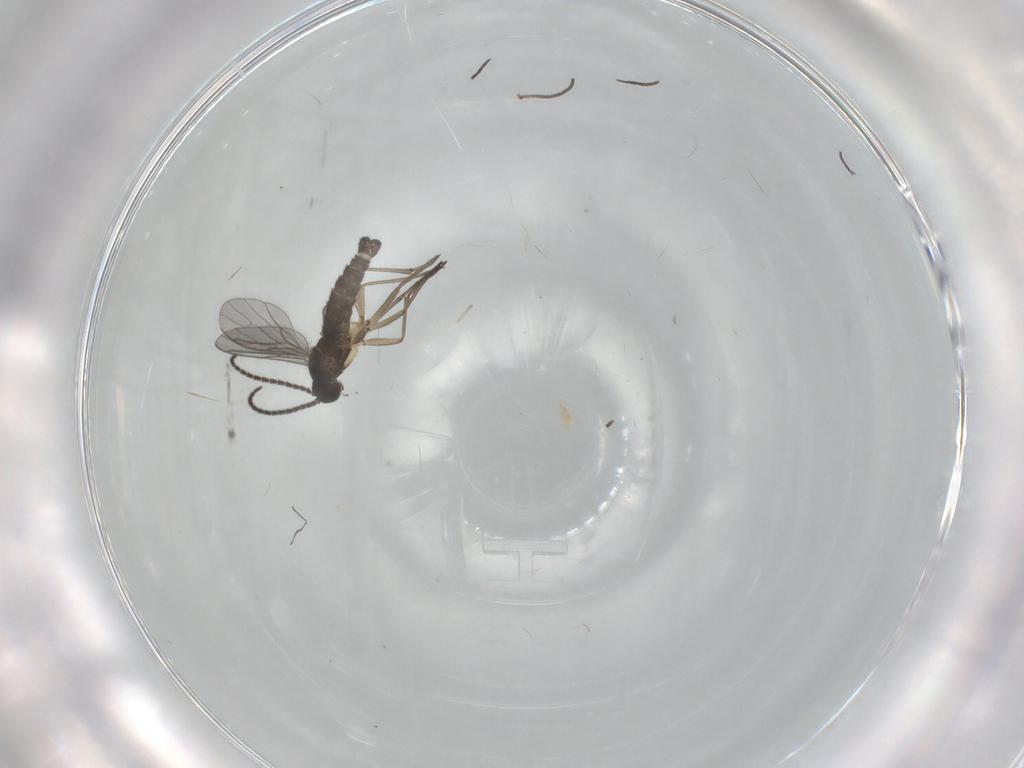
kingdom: Animalia
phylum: Arthropoda
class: Insecta
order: Diptera
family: Sciaridae
